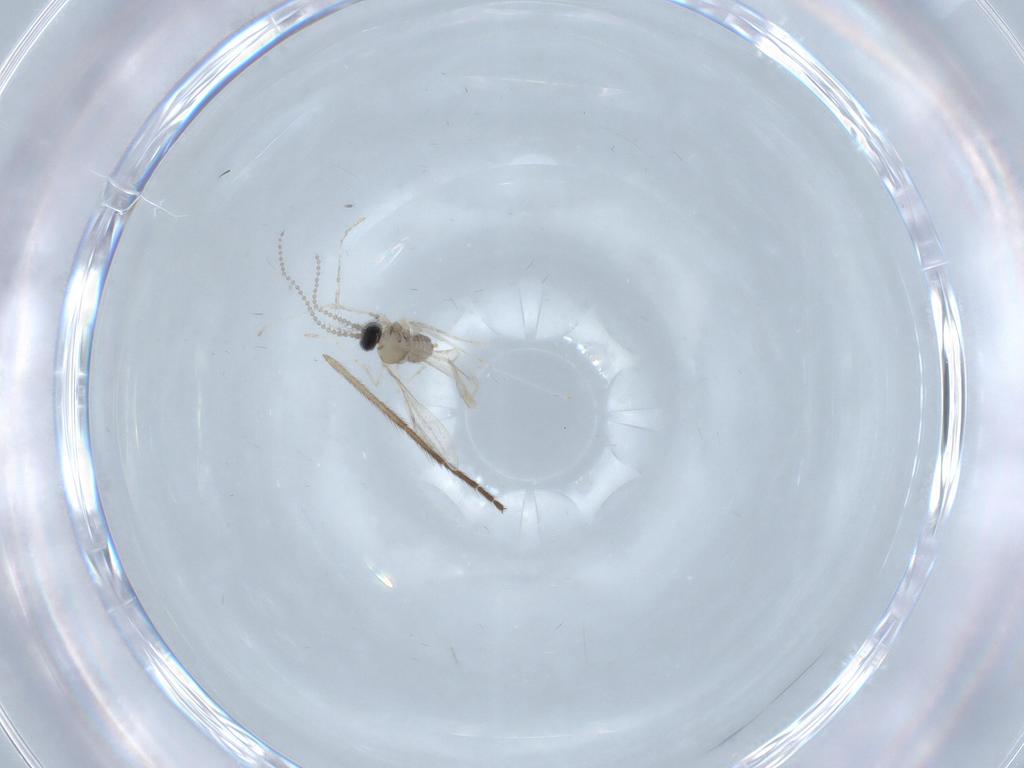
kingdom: Animalia
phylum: Arthropoda
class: Insecta
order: Diptera
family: Cecidomyiidae
